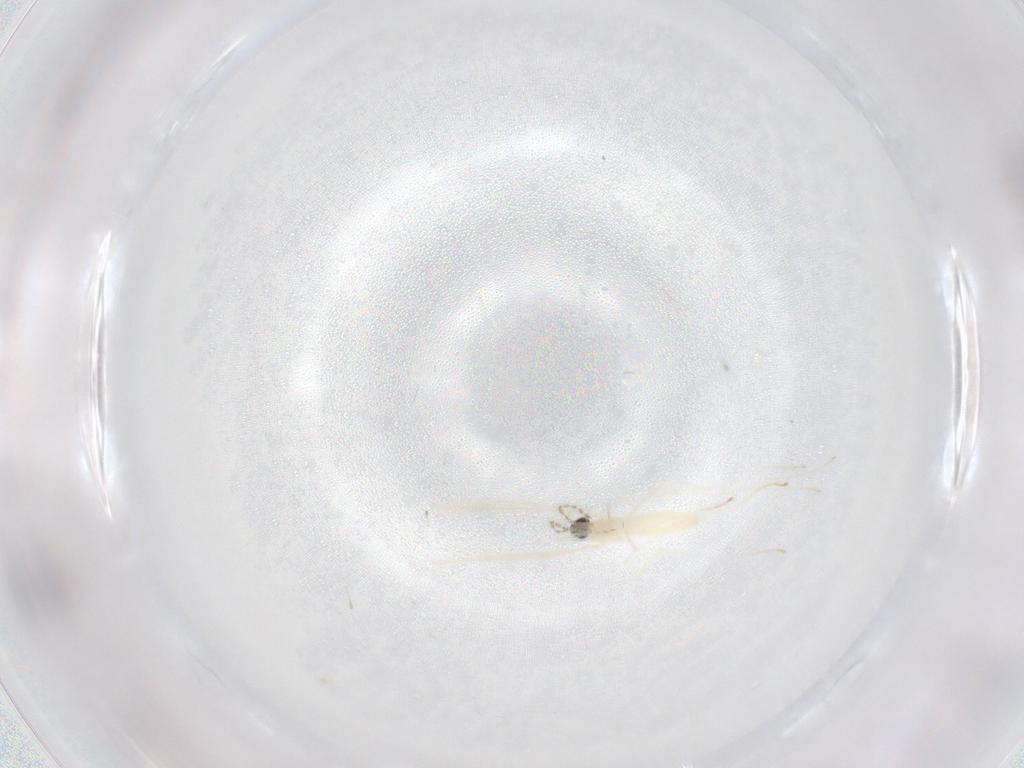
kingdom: Animalia
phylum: Arthropoda
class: Insecta
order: Diptera
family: Cecidomyiidae
